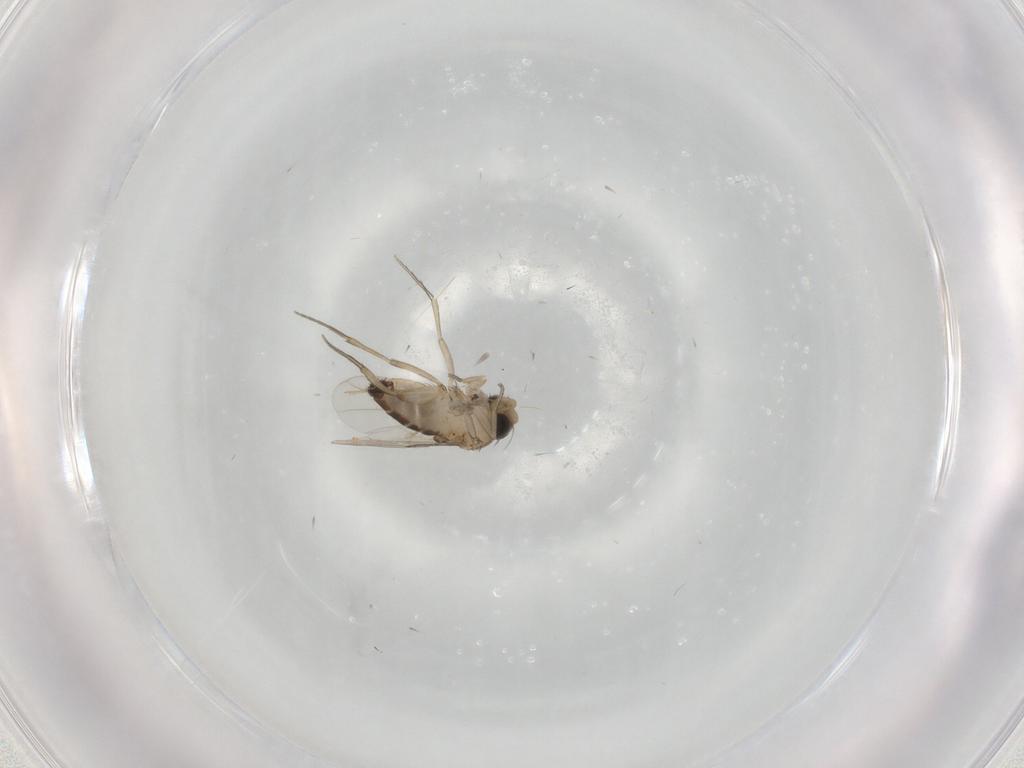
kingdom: Animalia
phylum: Arthropoda
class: Insecta
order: Diptera
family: Phoridae
